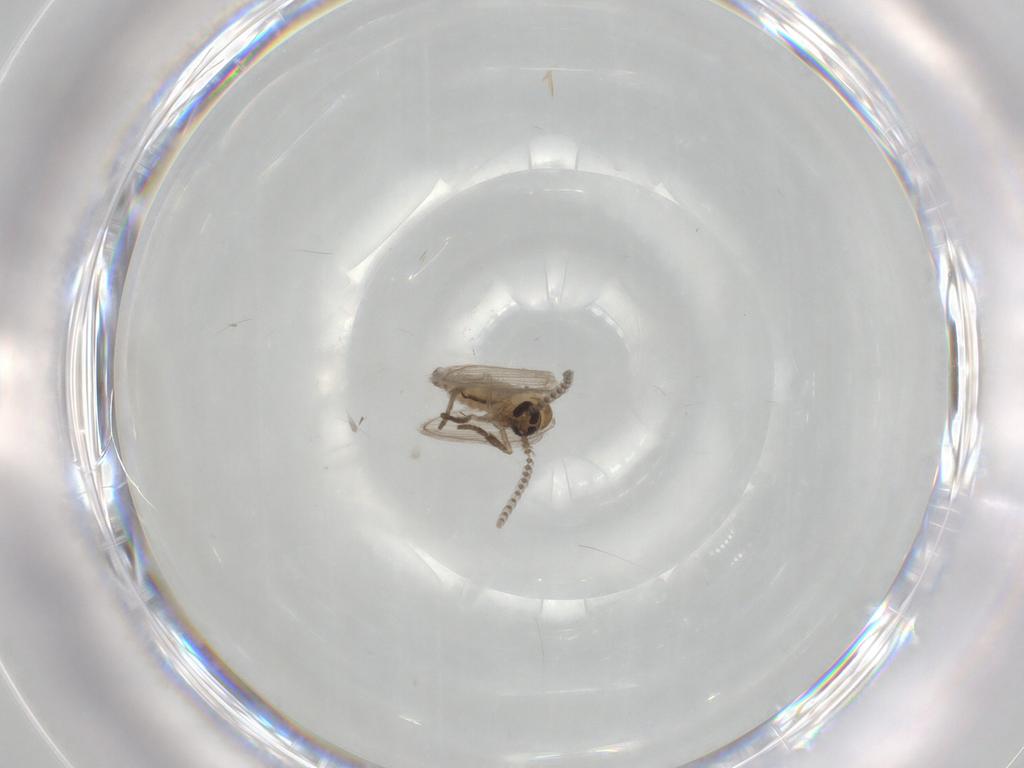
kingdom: Animalia
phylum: Arthropoda
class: Insecta
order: Diptera
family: Psychodidae
